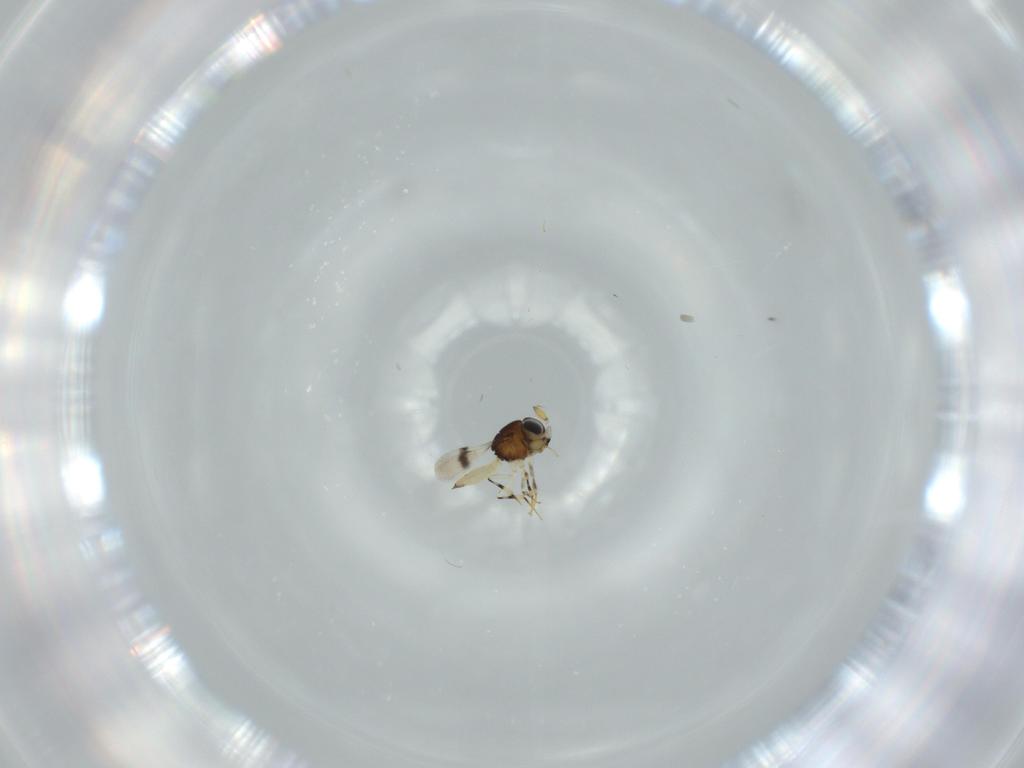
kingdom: Animalia
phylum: Arthropoda
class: Insecta
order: Hymenoptera
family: Scelionidae
